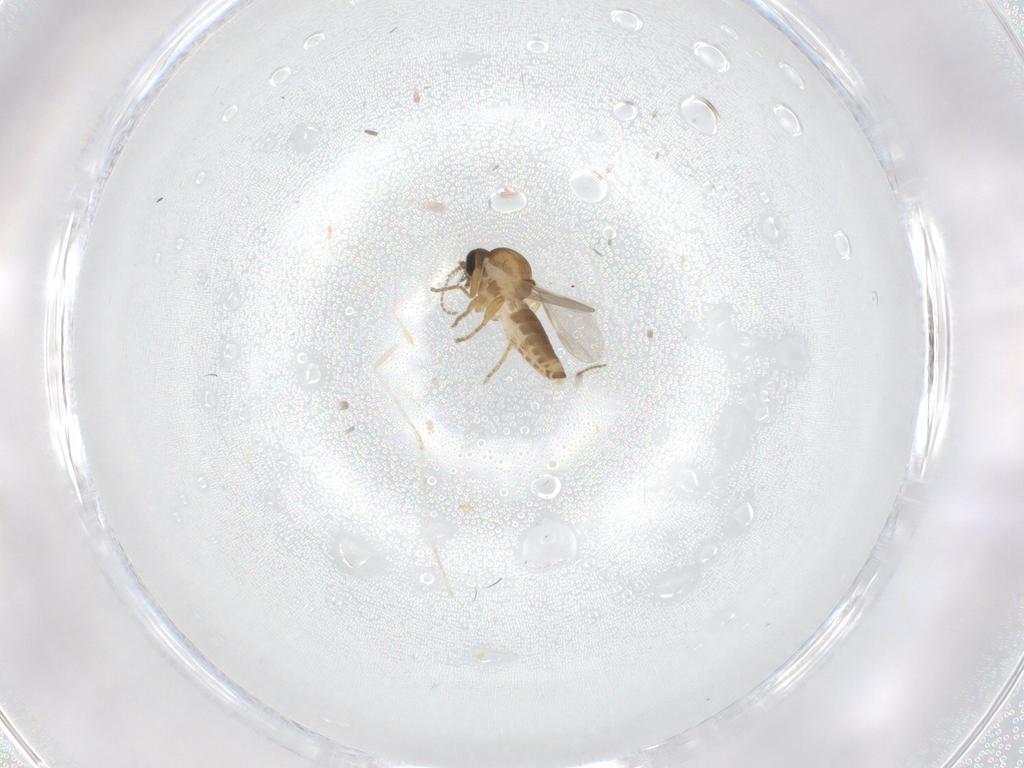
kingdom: Animalia
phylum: Arthropoda
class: Insecta
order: Diptera
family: Ceratopogonidae
